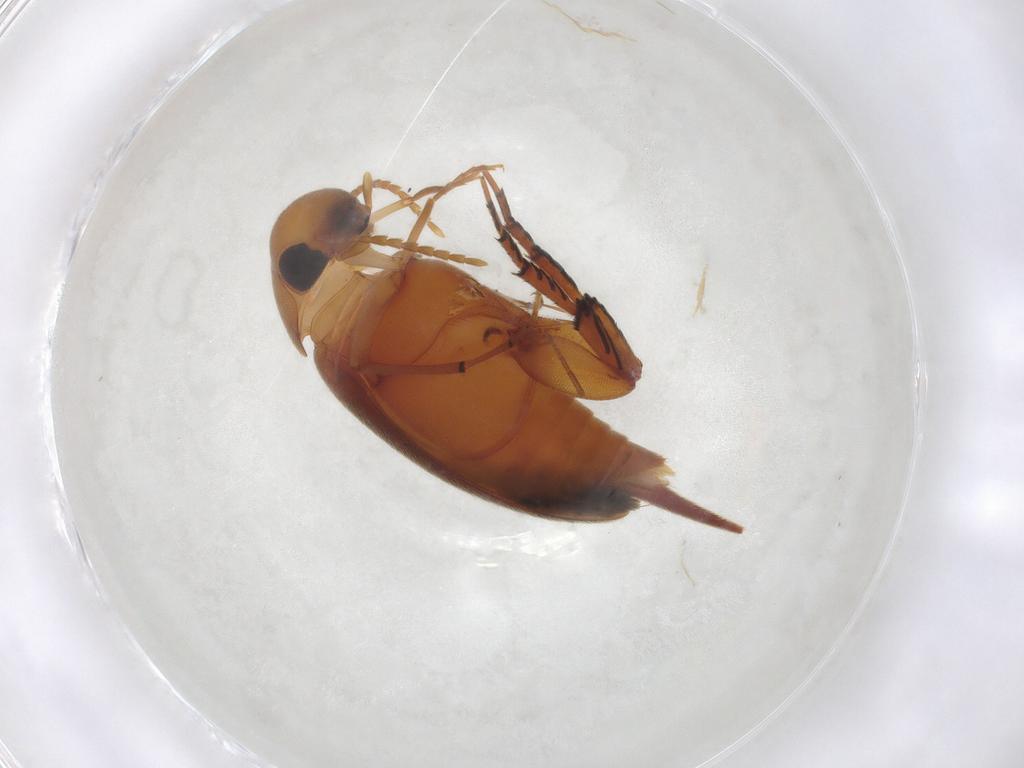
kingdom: Animalia
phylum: Arthropoda
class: Insecta
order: Coleoptera
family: Mordellidae
